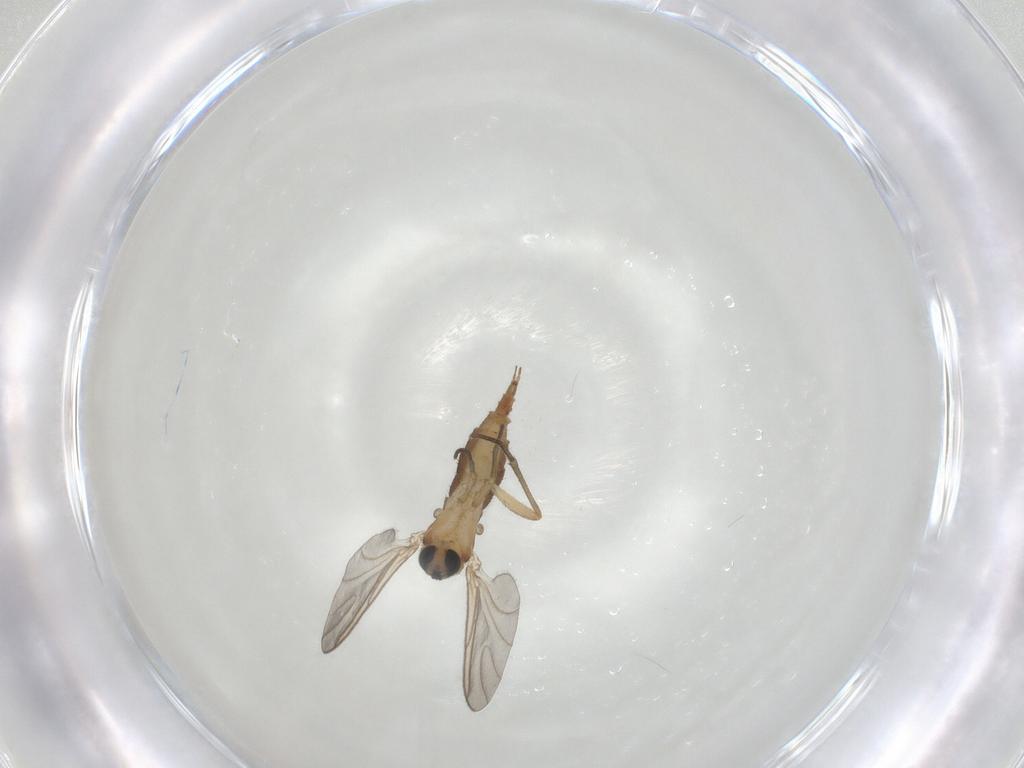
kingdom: Animalia
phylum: Arthropoda
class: Insecta
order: Diptera
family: Sciaridae
